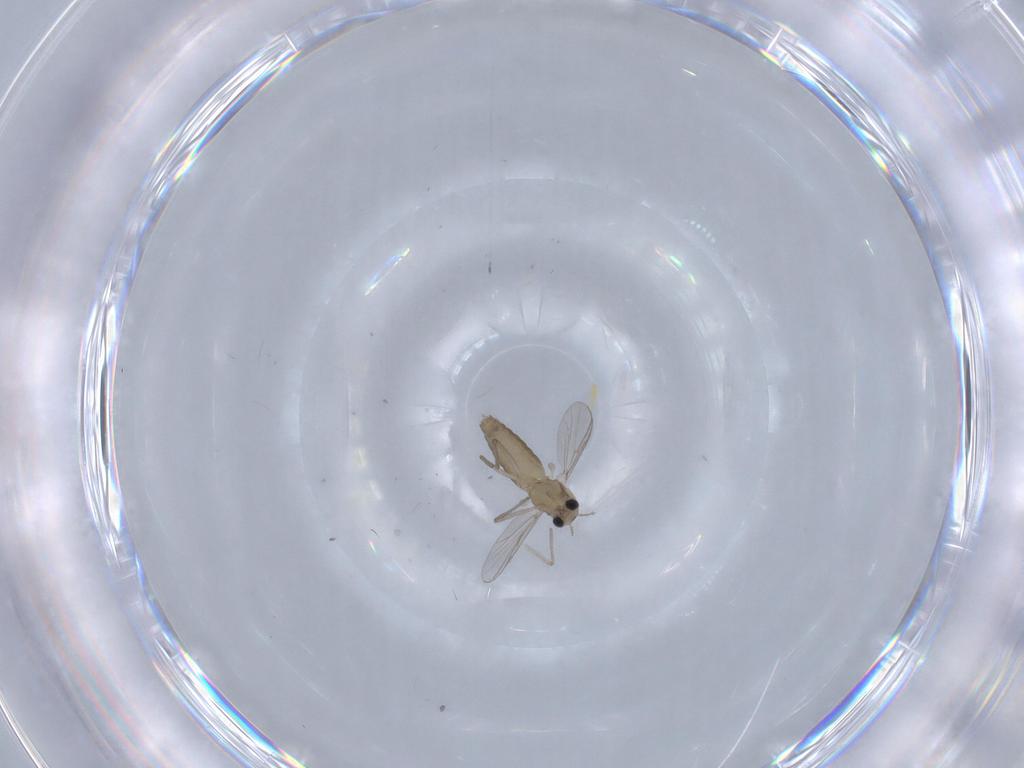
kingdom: Animalia
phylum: Arthropoda
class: Insecta
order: Diptera
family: Chironomidae
